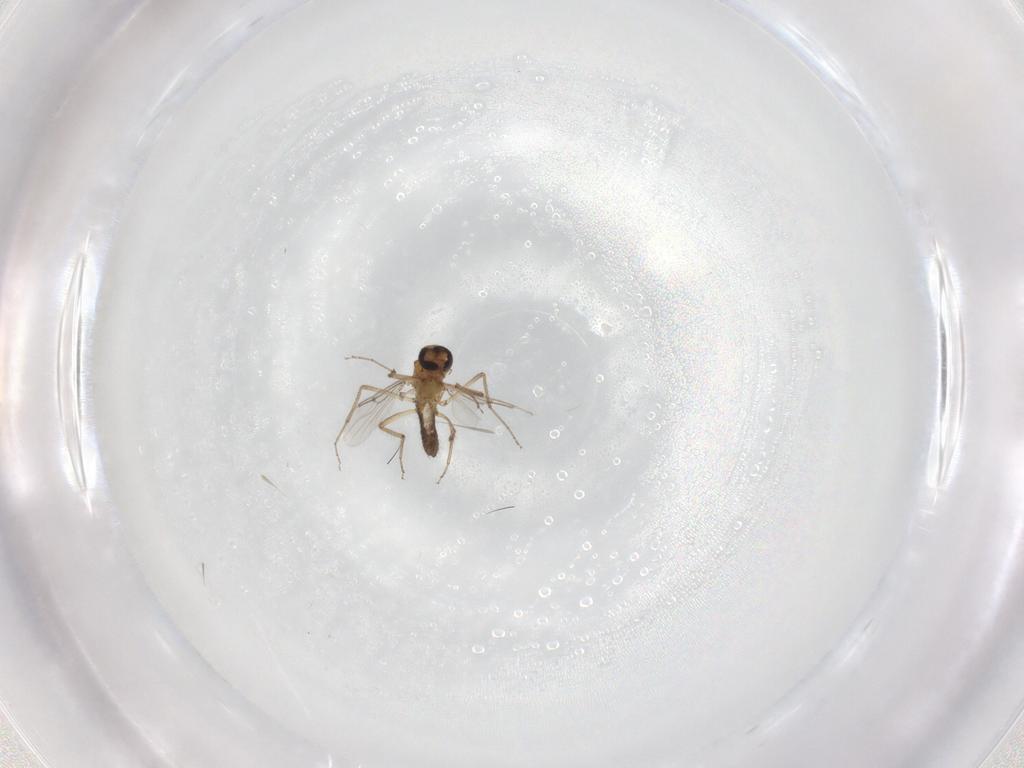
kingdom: Animalia
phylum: Arthropoda
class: Insecta
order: Diptera
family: Ceratopogonidae
